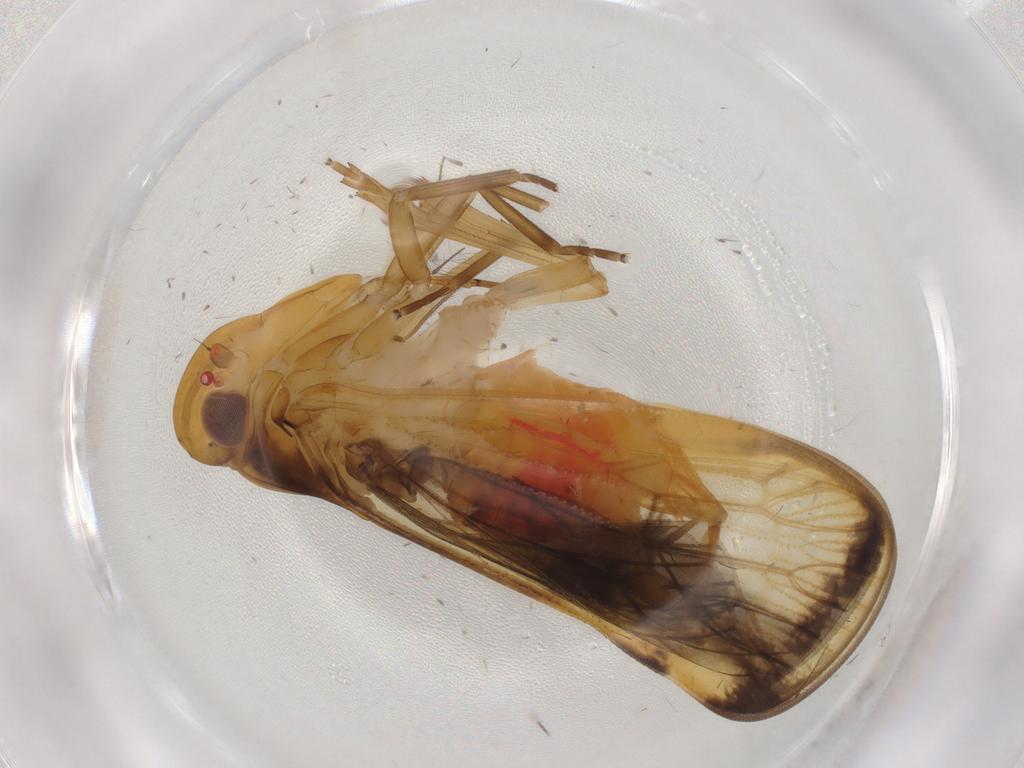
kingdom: Animalia
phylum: Arthropoda
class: Insecta
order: Hemiptera
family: Cixiidae
